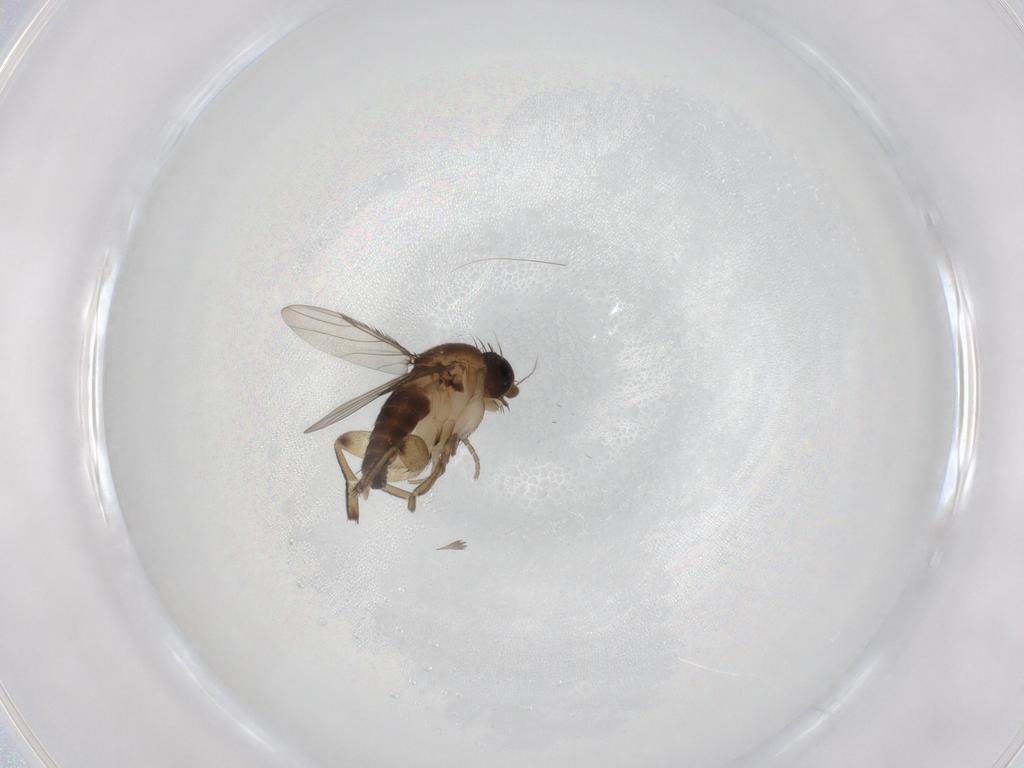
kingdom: Animalia
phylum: Arthropoda
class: Insecta
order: Diptera
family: Phoridae
